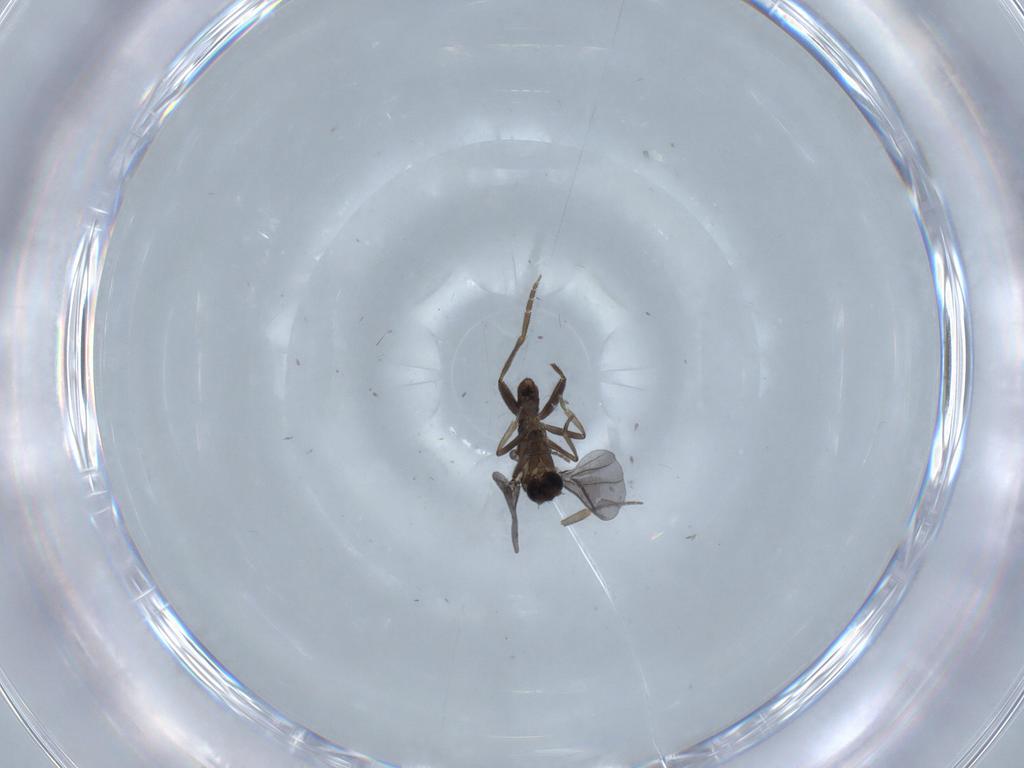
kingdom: Animalia
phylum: Arthropoda
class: Insecta
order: Diptera
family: Chironomidae
